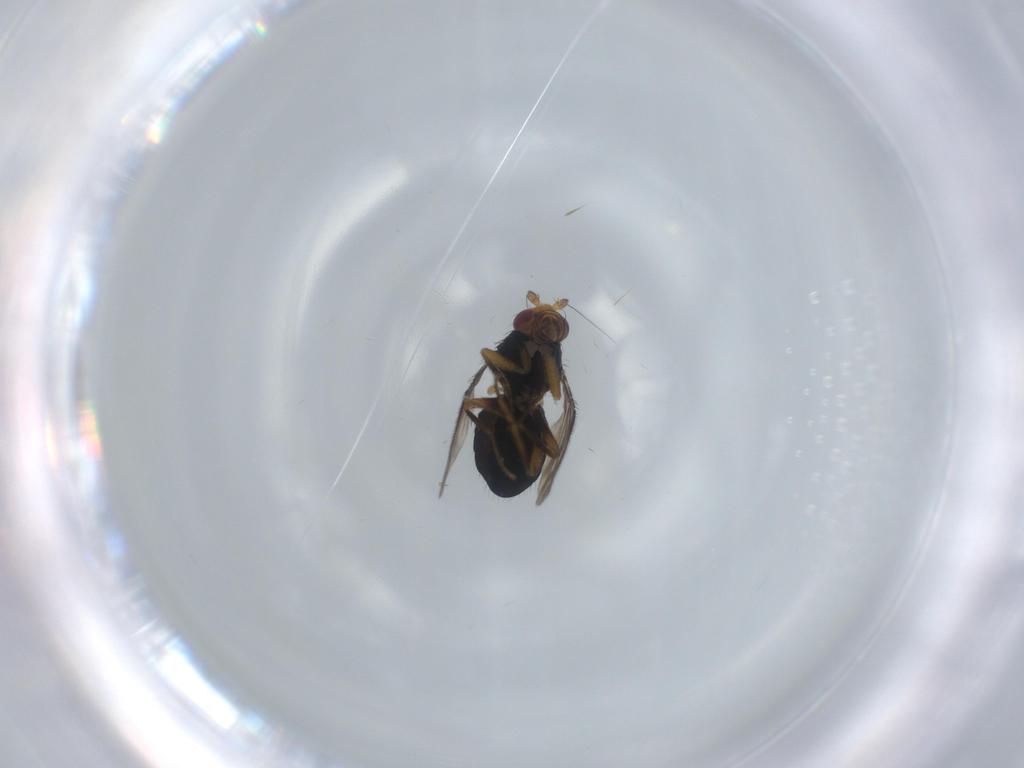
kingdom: Animalia
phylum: Arthropoda
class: Insecta
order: Diptera
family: Sphaeroceridae
